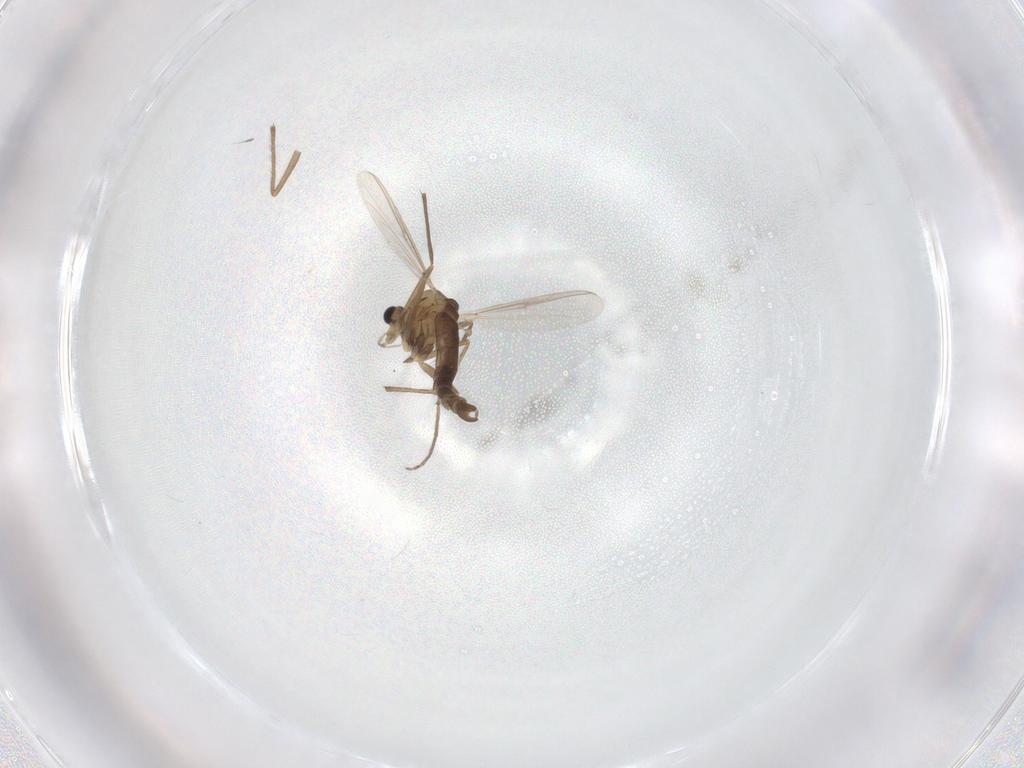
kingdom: Animalia
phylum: Arthropoda
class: Insecta
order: Diptera
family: Chironomidae
